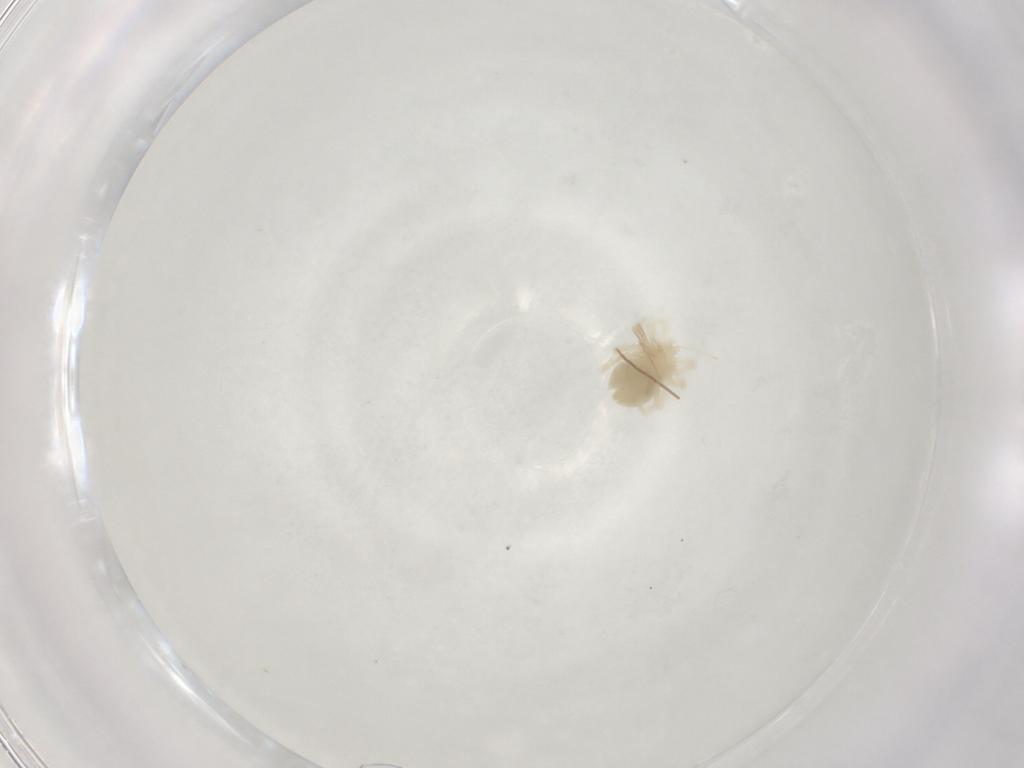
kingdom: Animalia
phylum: Arthropoda
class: Arachnida
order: Trombidiformes
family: Anystidae
